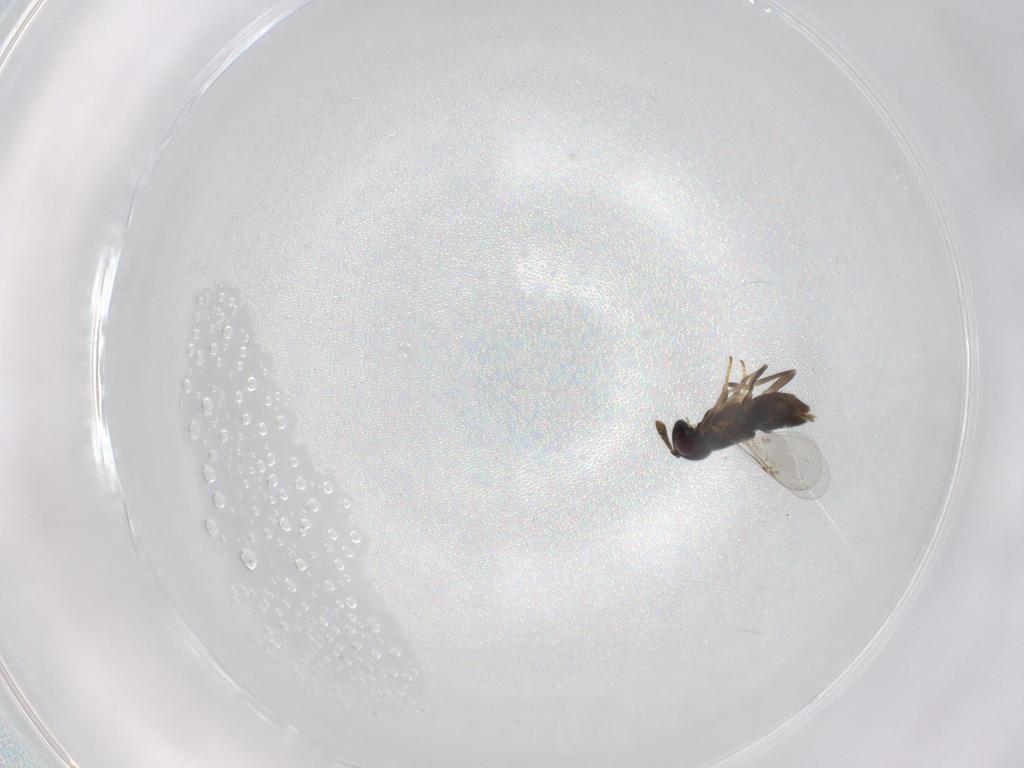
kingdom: Animalia
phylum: Arthropoda
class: Insecta
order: Hymenoptera
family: Encyrtidae
